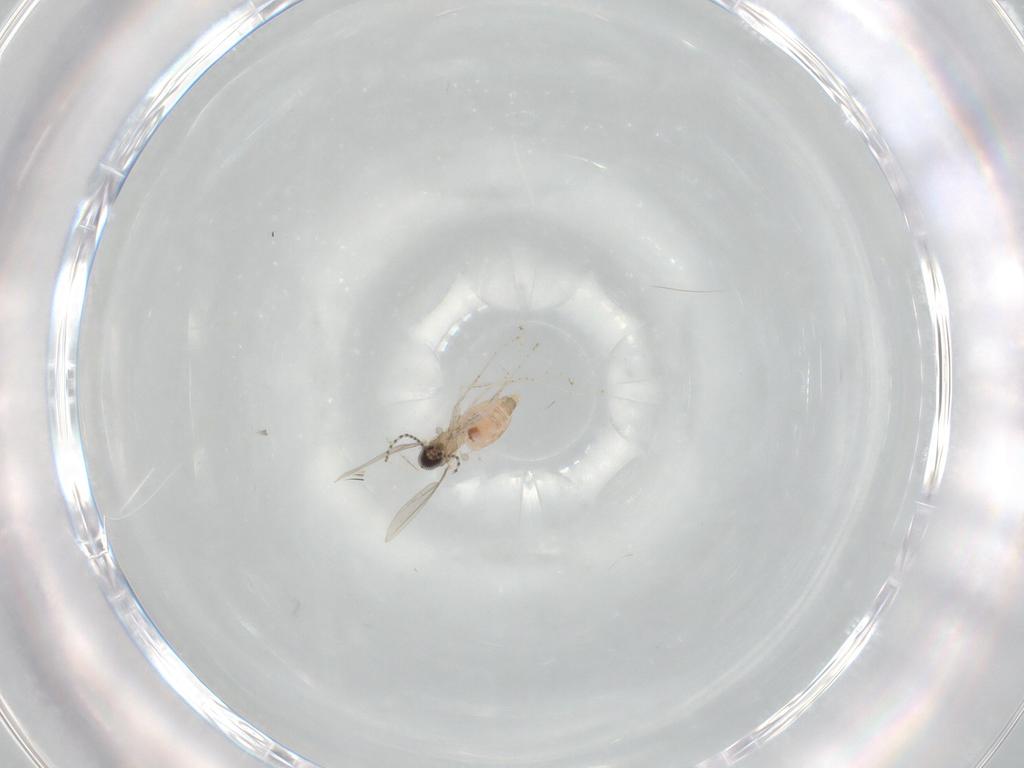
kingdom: Animalia
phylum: Arthropoda
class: Insecta
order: Diptera
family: Cecidomyiidae
